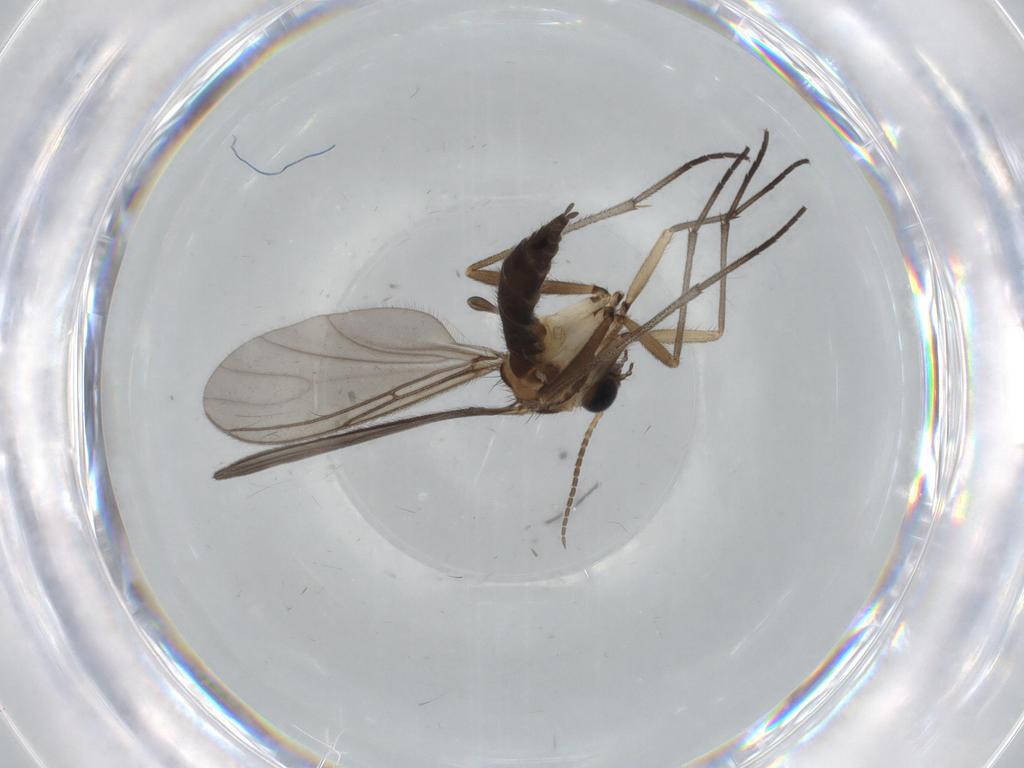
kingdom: Animalia
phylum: Arthropoda
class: Insecta
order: Diptera
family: Sciaridae
